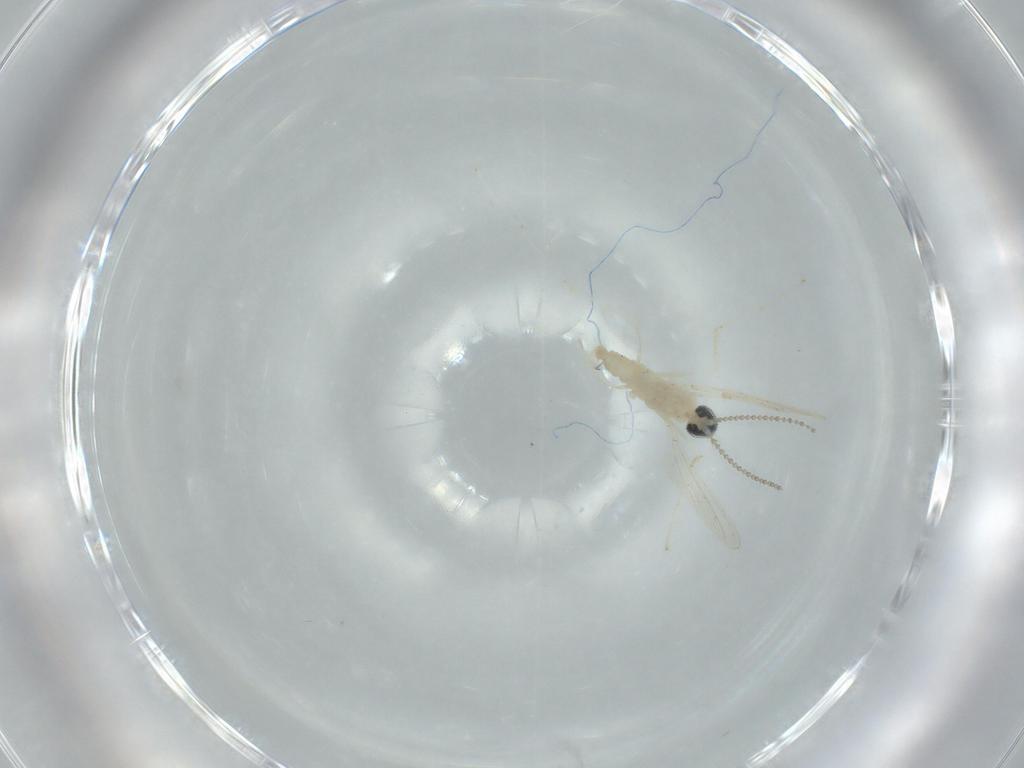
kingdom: Animalia
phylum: Arthropoda
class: Insecta
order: Diptera
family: Cecidomyiidae
